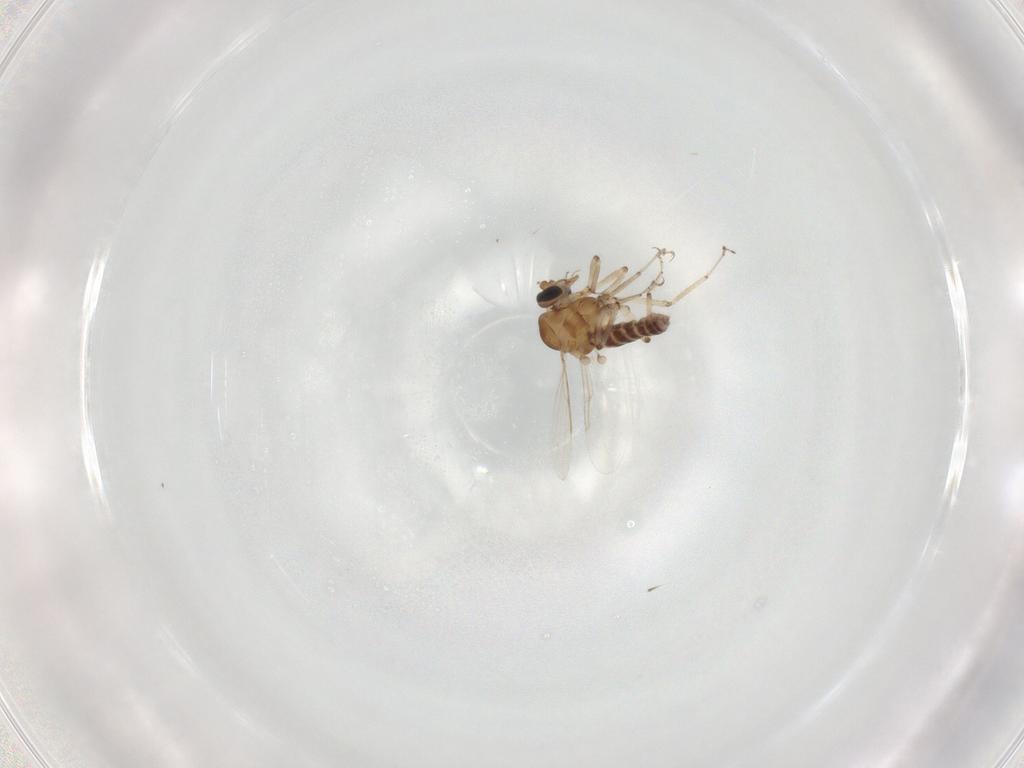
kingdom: Animalia
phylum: Arthropoda
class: Insecta
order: Diptera
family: Ceratopogonidae
